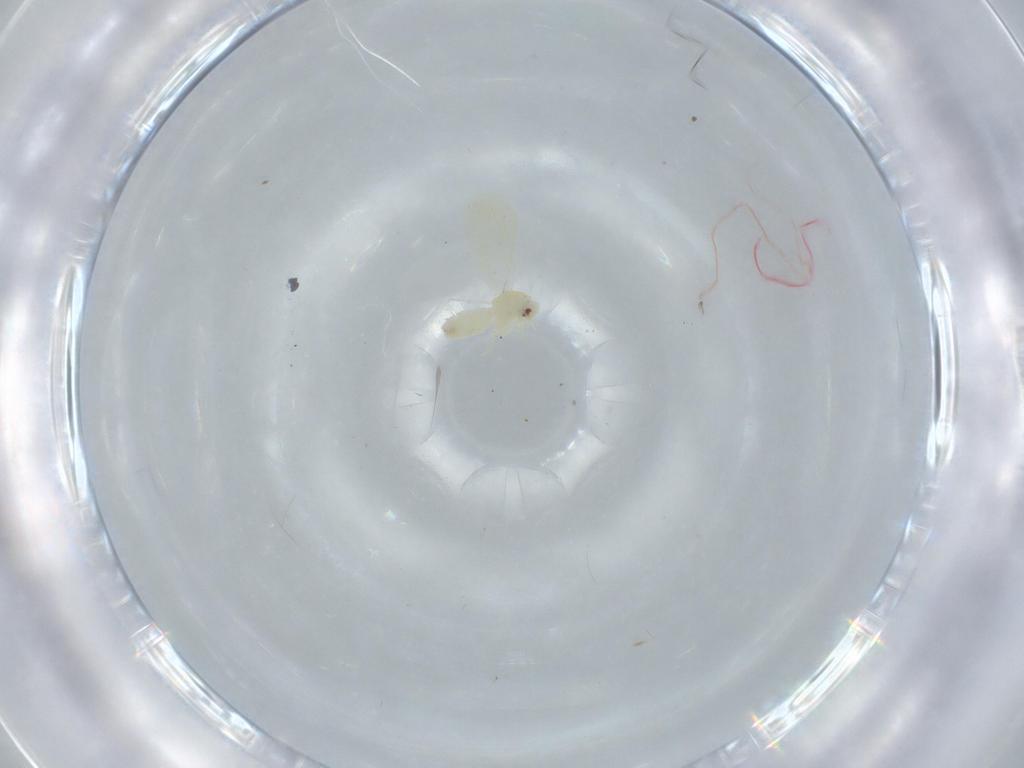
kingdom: Animalia
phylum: Arthropoda
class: Insecta
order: Hemiptera
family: Aleyrodidae
